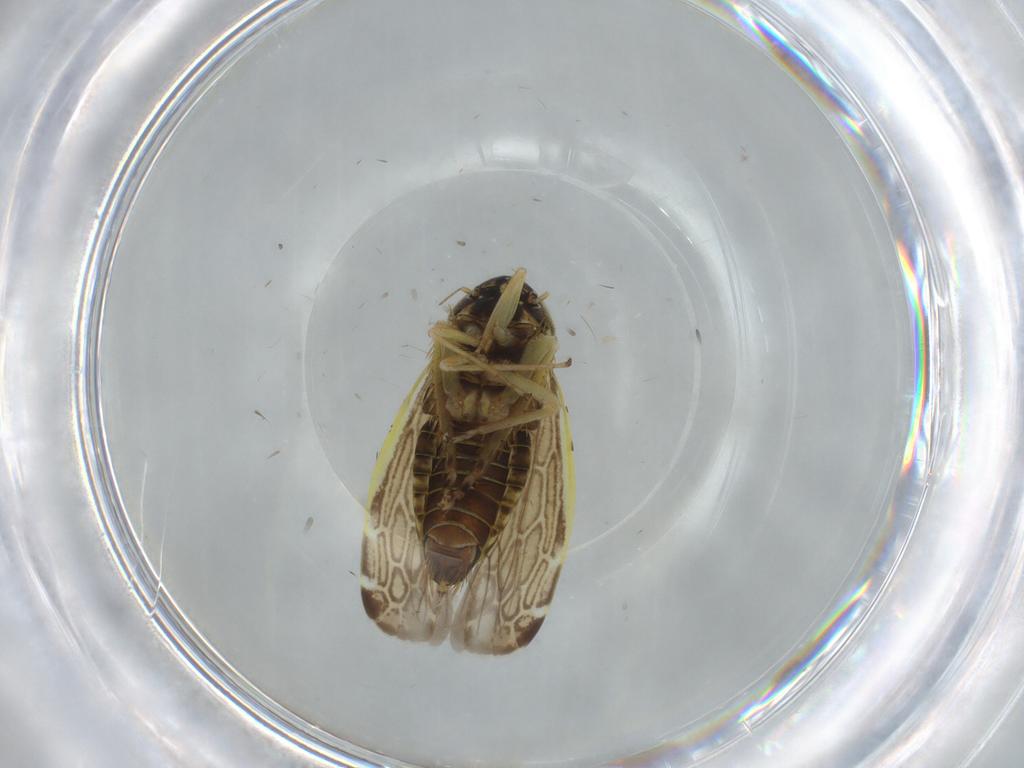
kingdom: Animalia
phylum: Arthropoda
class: Insecta
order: Hemiptera
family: Cicadellidae
